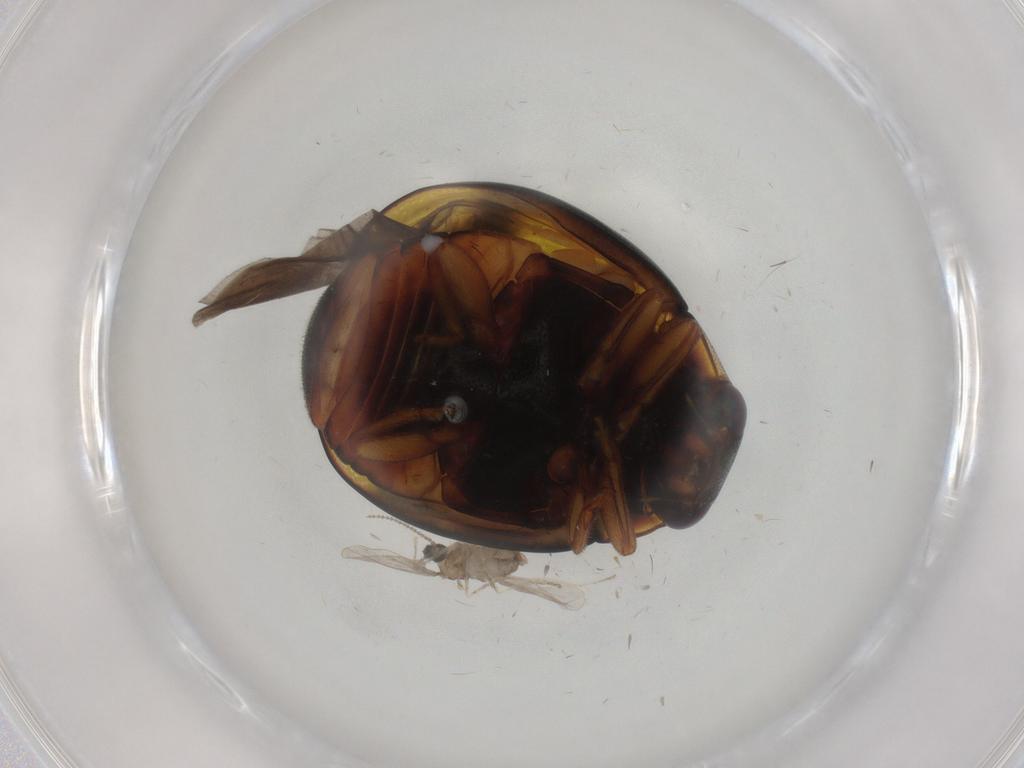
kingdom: Animalia
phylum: Arthropoda
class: Insecta
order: Coleoptera
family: Coccinellidae
